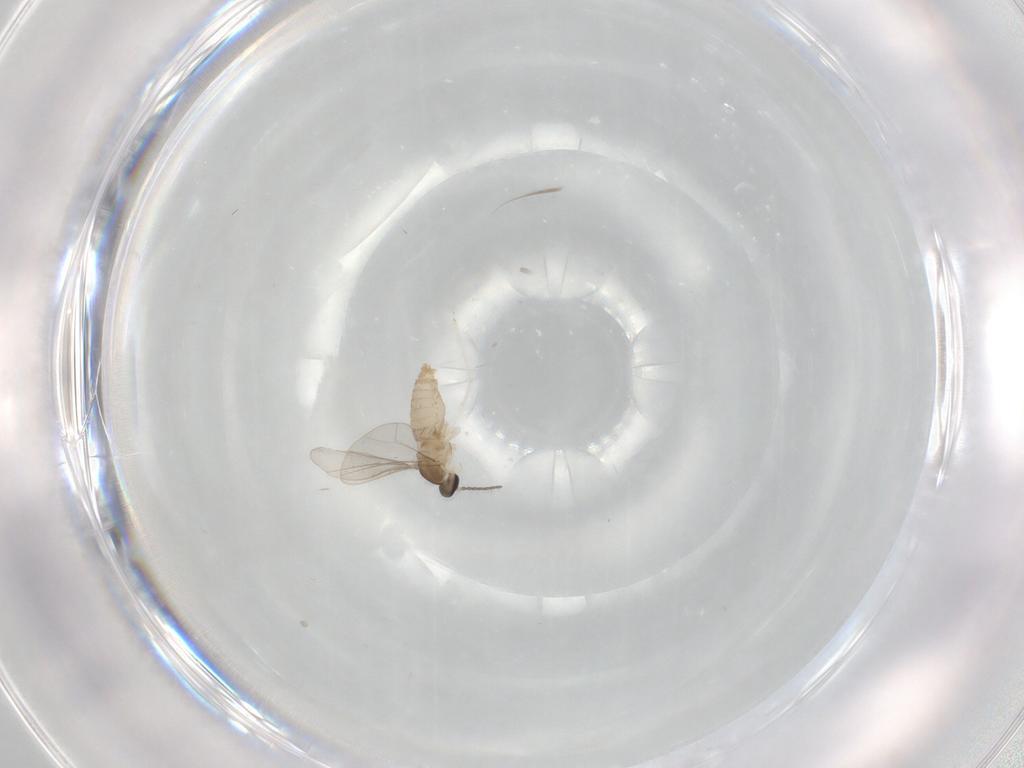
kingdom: Animalia
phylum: Arthropoda
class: Insecta
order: Diptera
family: Cecidomyiidae
